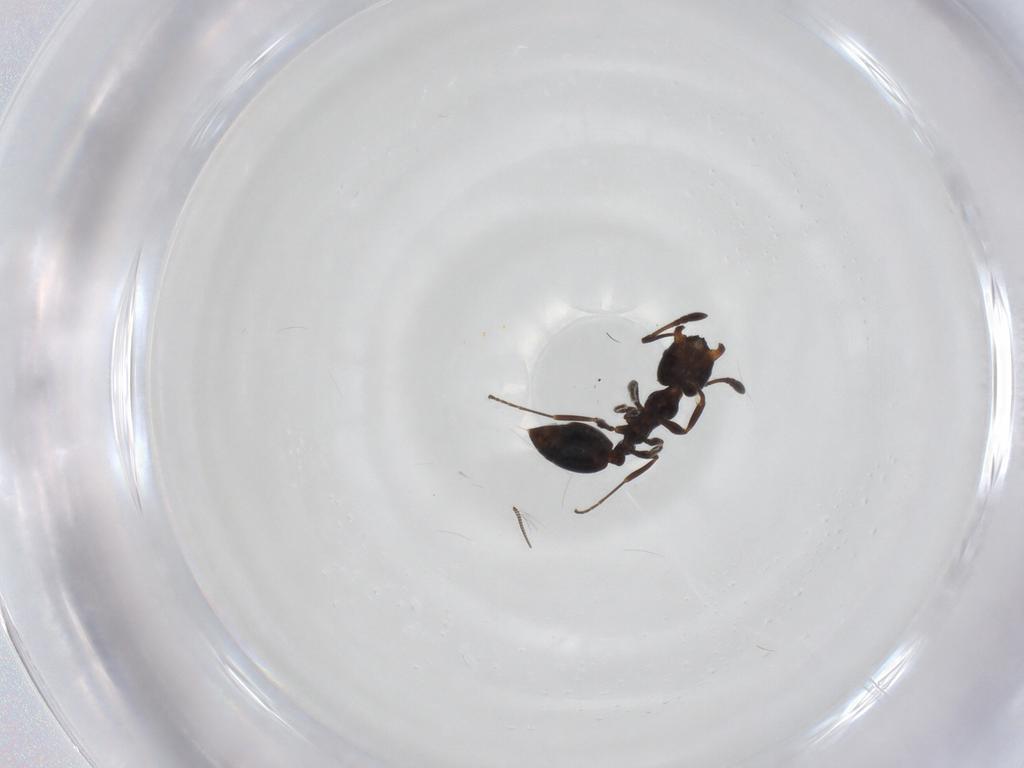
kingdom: Animalia
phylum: Arthropoda
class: Insecta
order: Hymenoptera
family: Formicidae
